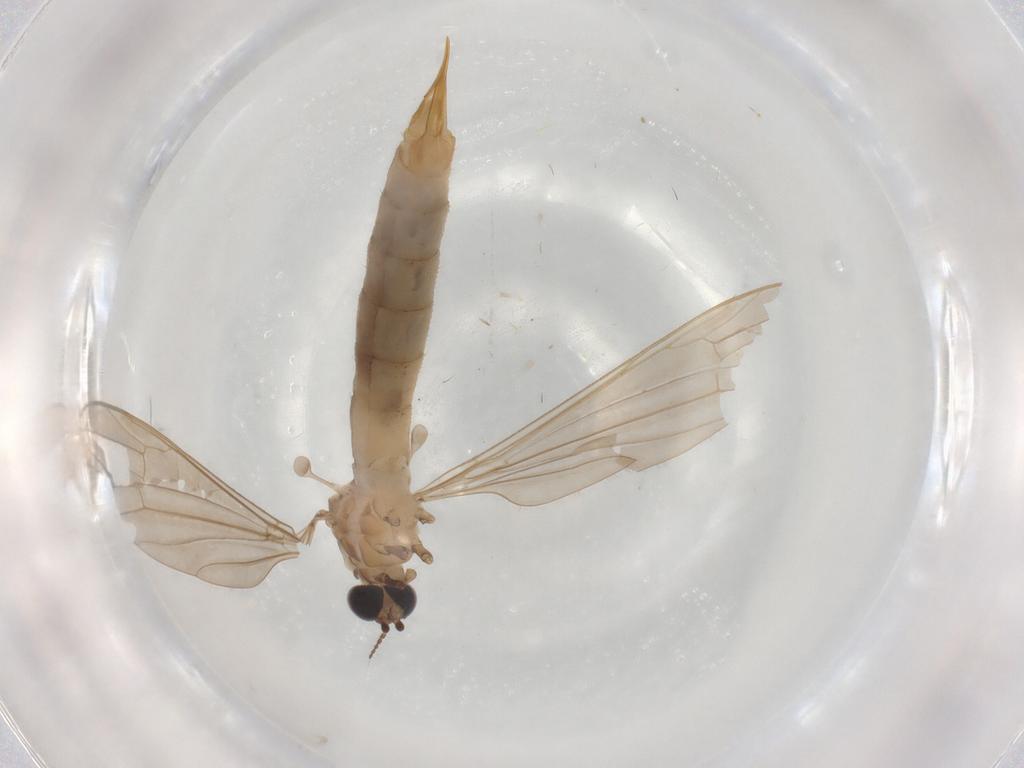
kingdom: Animalia
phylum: Arthropoda
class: Insecta
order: Diptera
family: Limoniidae
